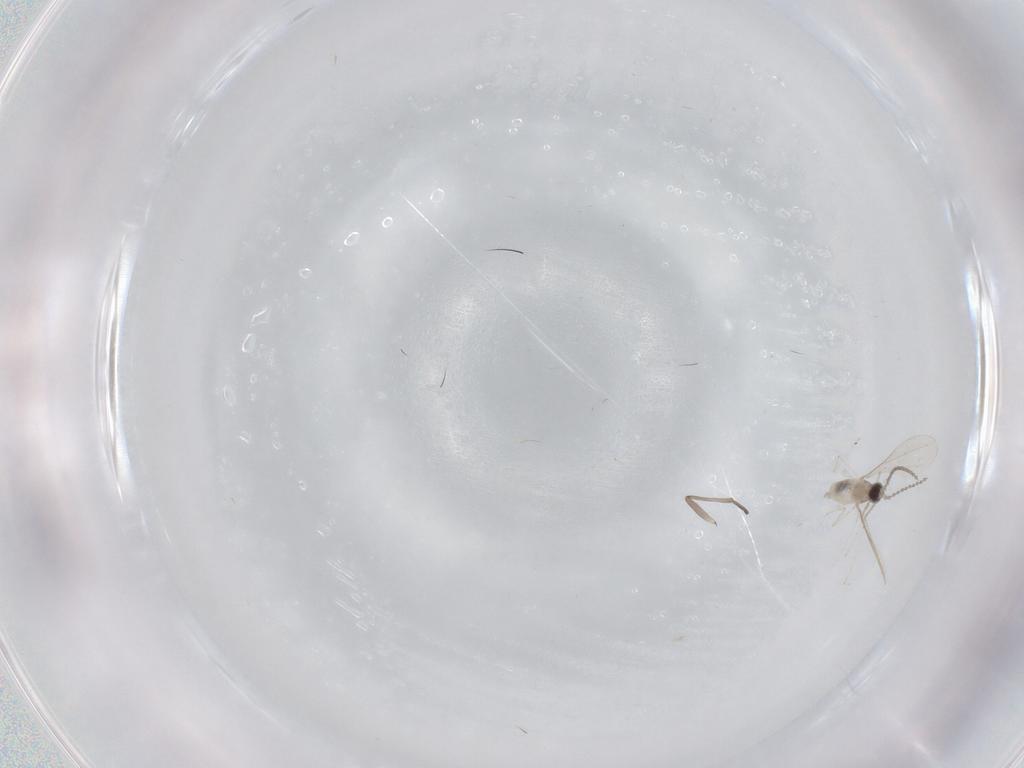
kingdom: Animalia
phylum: Arthropoda
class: Insecta
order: Diptera
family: Cecidomyiidae
